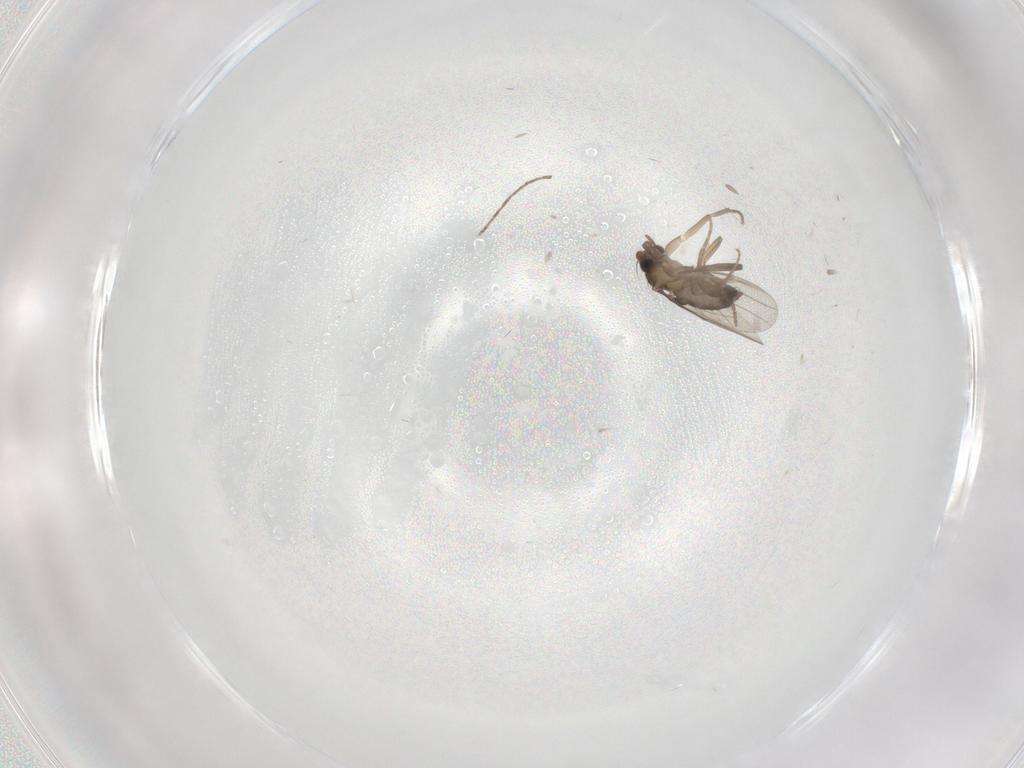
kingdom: Animalia
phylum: Arthropoda
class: Insecta
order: Diptera
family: Cecidomyiidae
